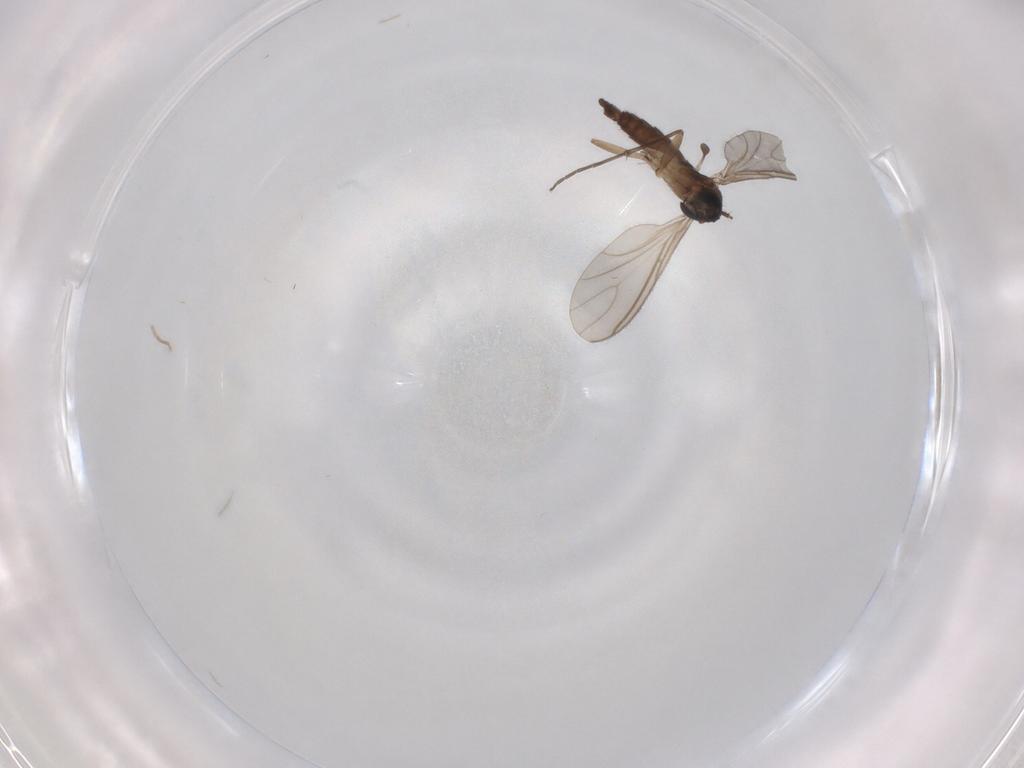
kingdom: Animalia
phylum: Arthropoda
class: Insecta
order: Diptera
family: Sciaridae
